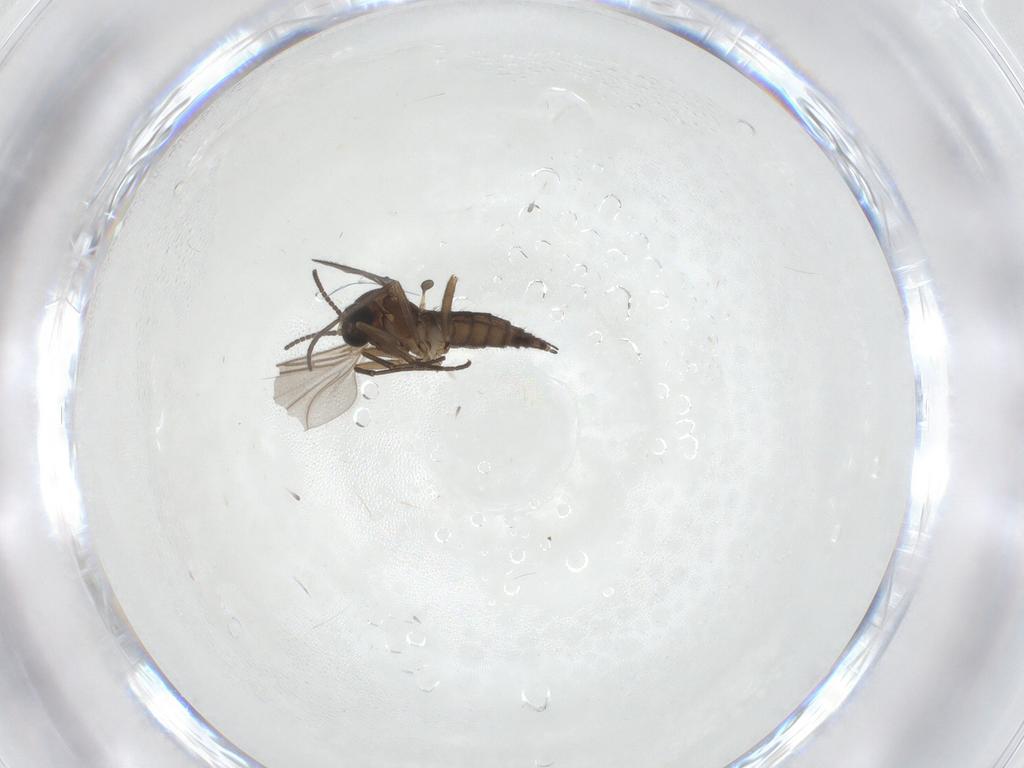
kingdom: Animalia
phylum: Arthropoda
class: Insecta
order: Diptera
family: Sciaridae
